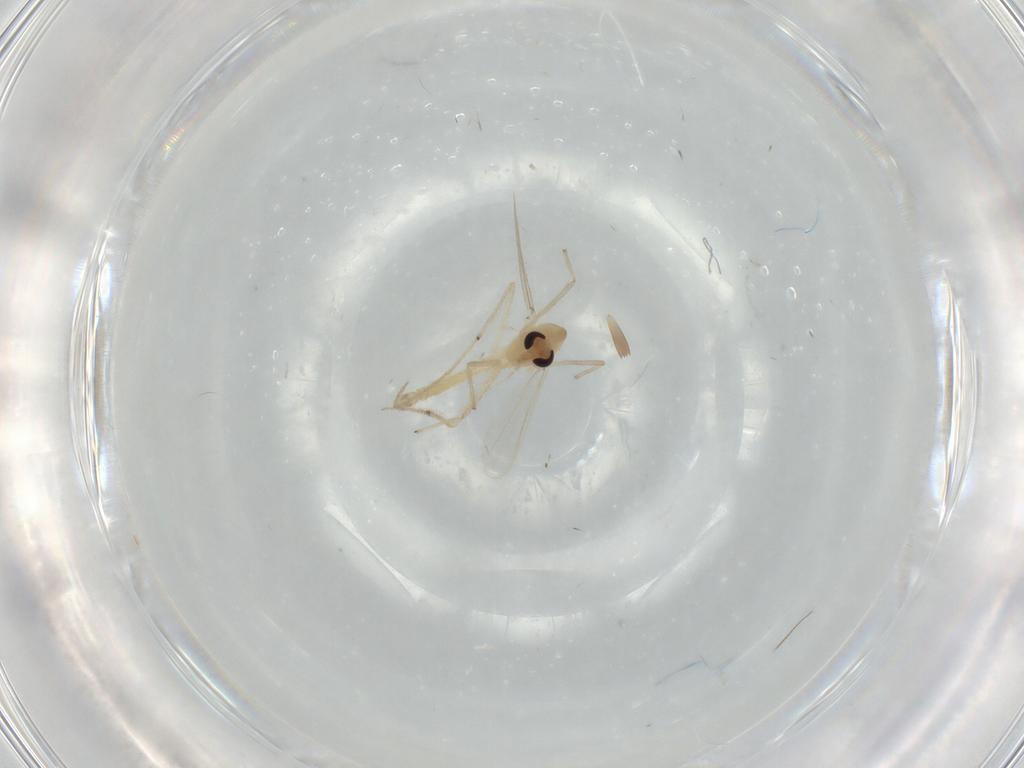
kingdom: Animalia
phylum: Arthropoda
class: Insecta
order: Diptera
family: Chironomidae
